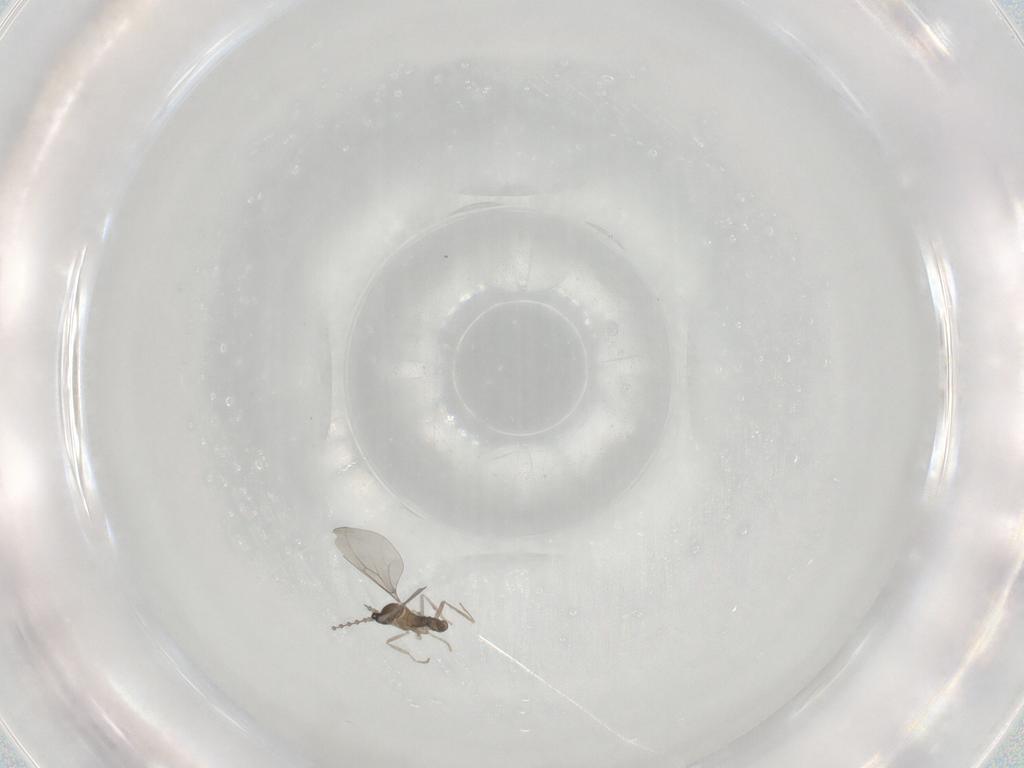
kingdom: Animalia
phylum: Arthropoda
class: Insecta
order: Diptera
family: Cecidomyiidae
